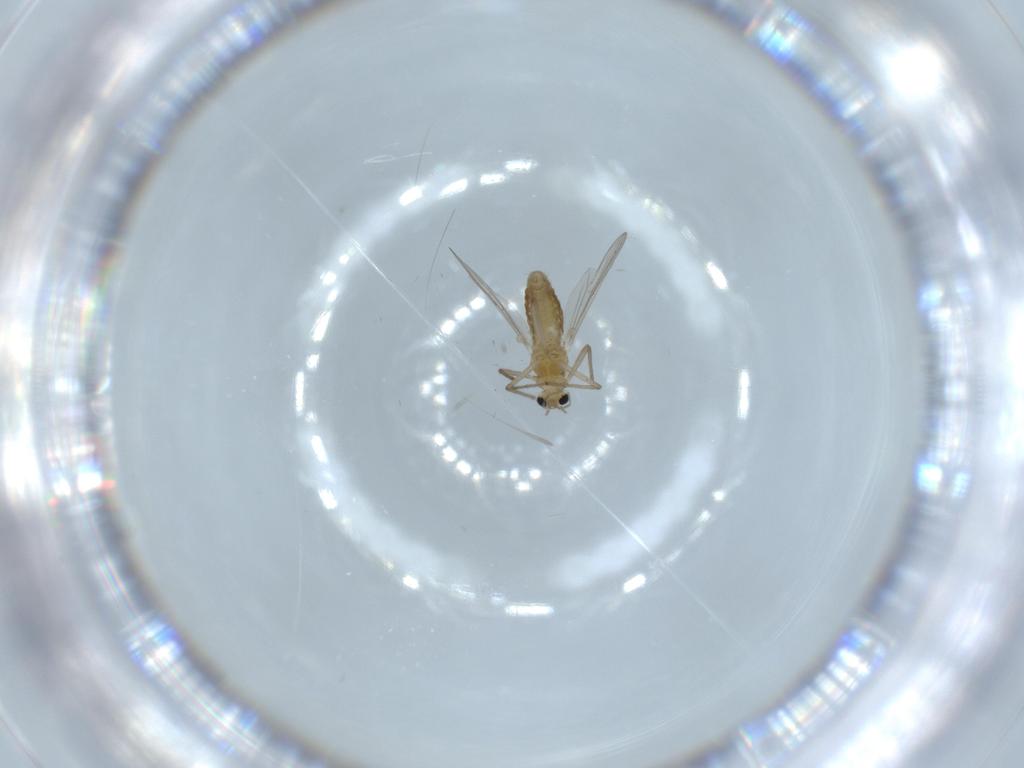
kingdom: Animalia
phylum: Arthropoda
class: Insecta
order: Diptera
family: Chironomidae
